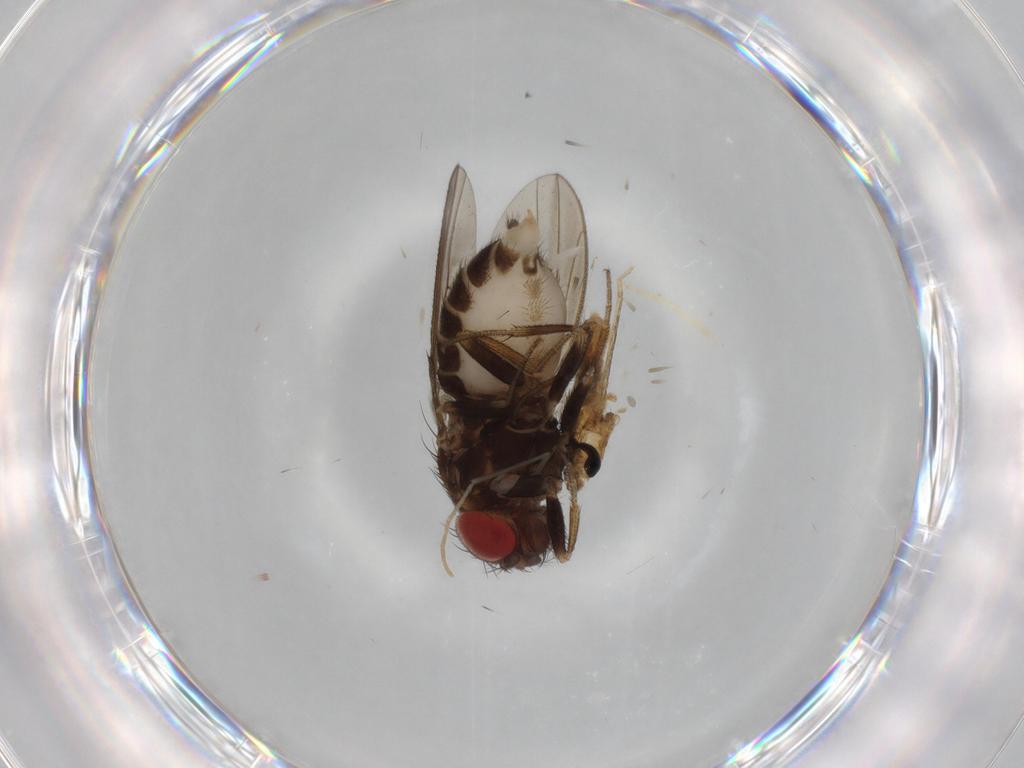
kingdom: Animalia
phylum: Arthropoda
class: Insecta
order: Diptera
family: Drosophilidae
